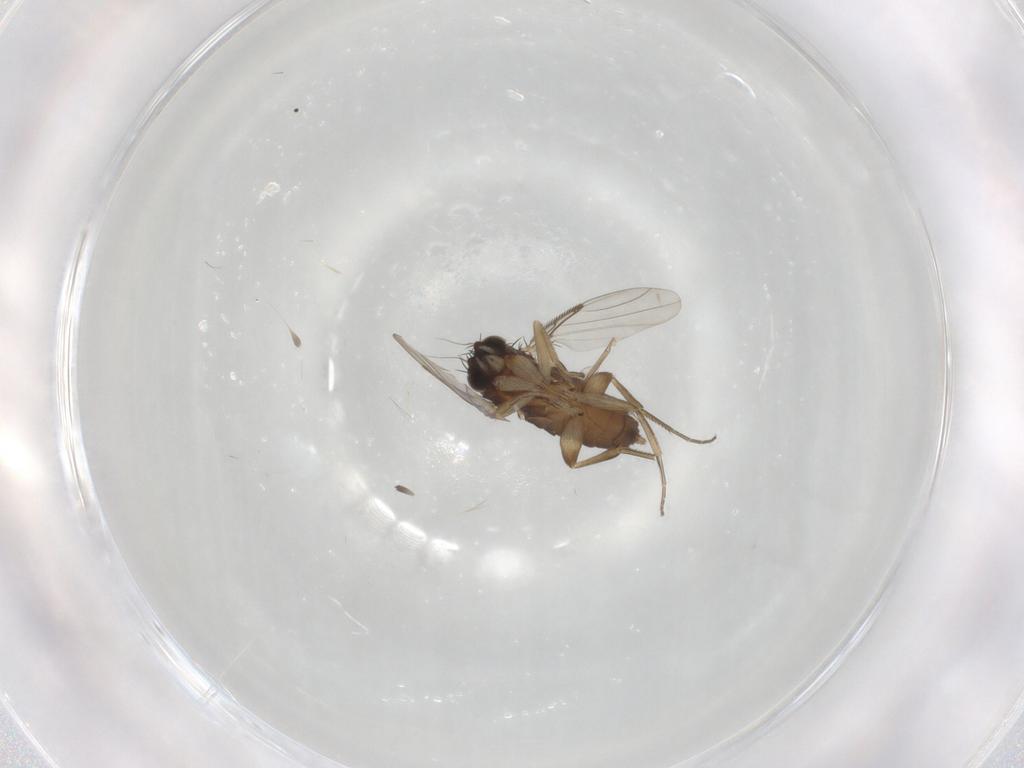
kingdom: Animalia
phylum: Arthropoda
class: Insecta
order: Diptera
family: Phoridae
